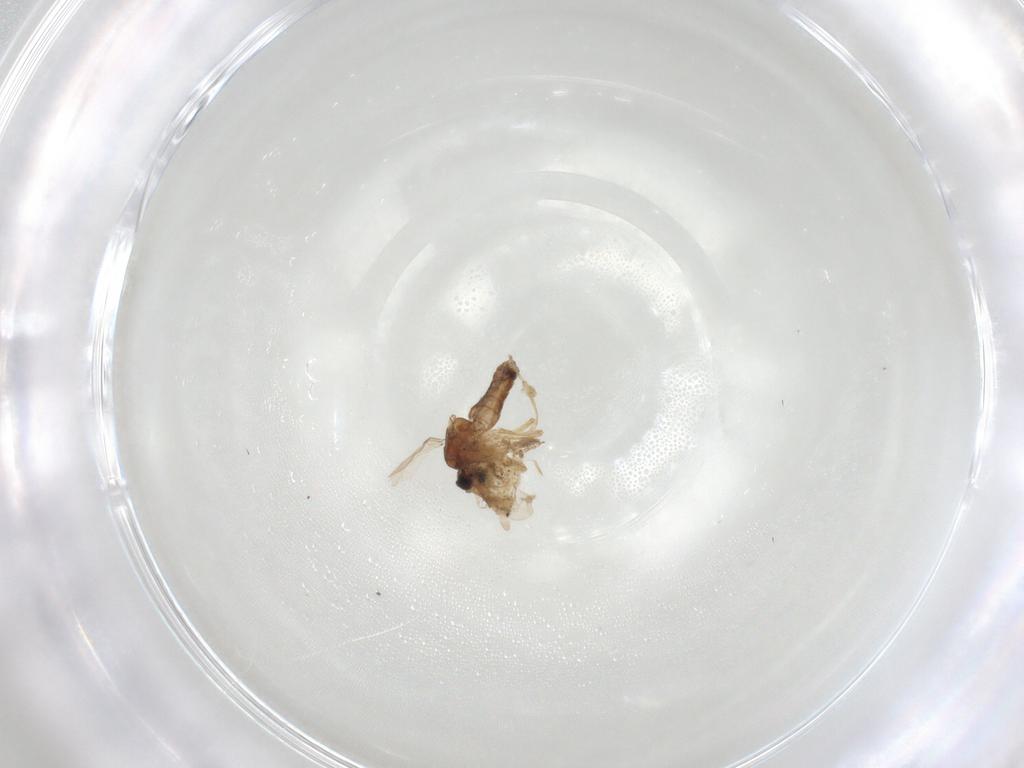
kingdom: Animalia
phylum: Arthropoda
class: Insecta
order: Diptera
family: Ceratopogonidae
